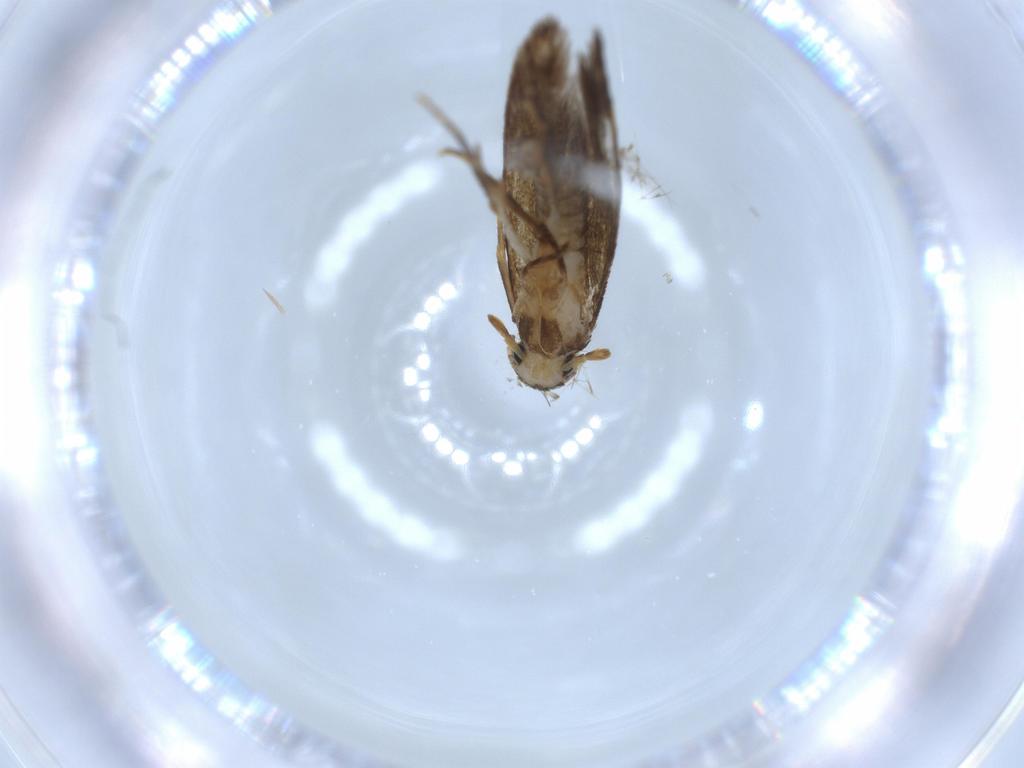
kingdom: Animalia
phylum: Arthropoda
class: Insecta
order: Lepidoptera
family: Tineidae
